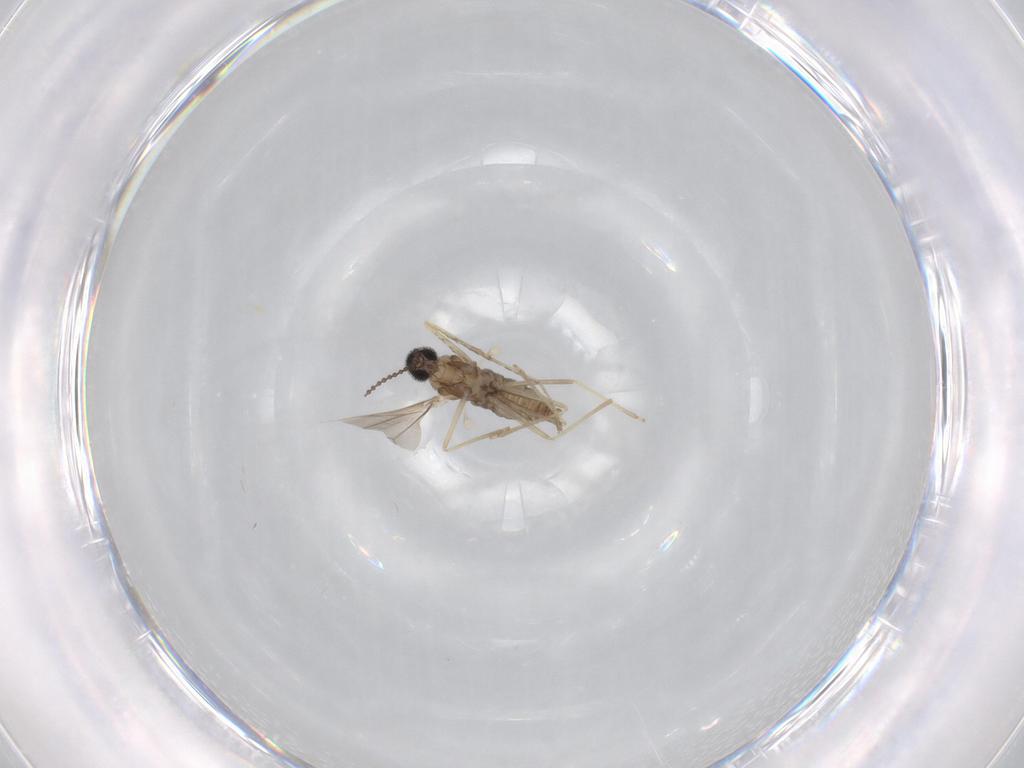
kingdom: Animalia
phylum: Arthropoda
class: Insecta
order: Diptera
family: Cecidomyiidae
